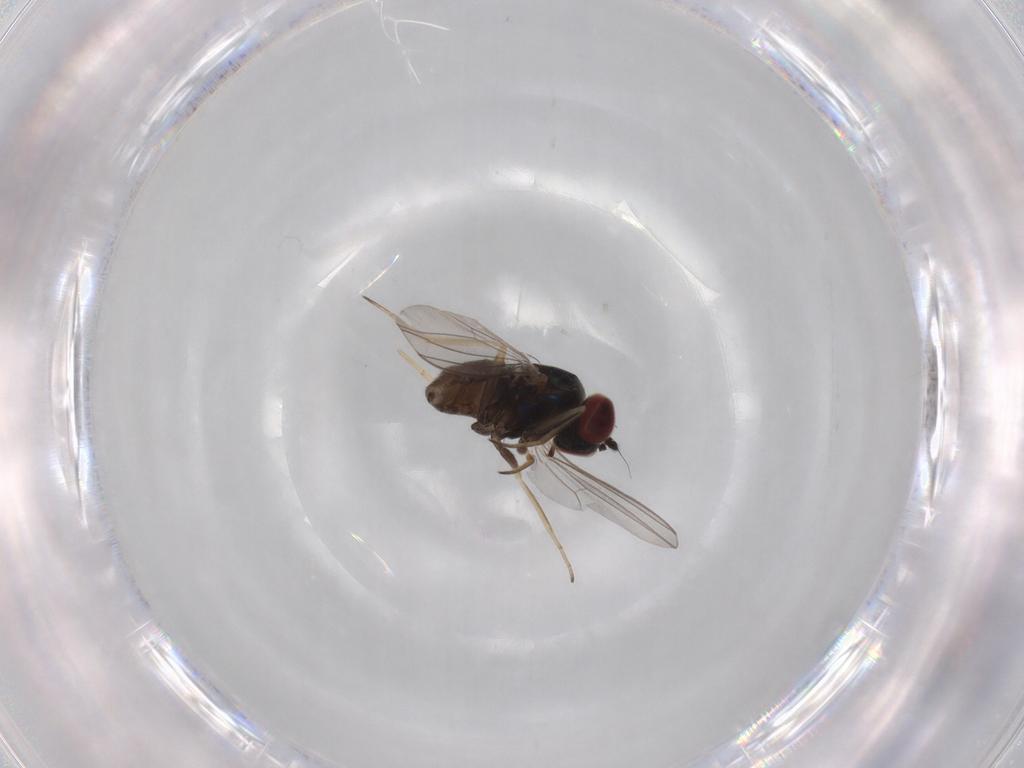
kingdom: Animalia
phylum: Arthropoda
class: Insecta
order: Diptera
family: Dolichopodidae
